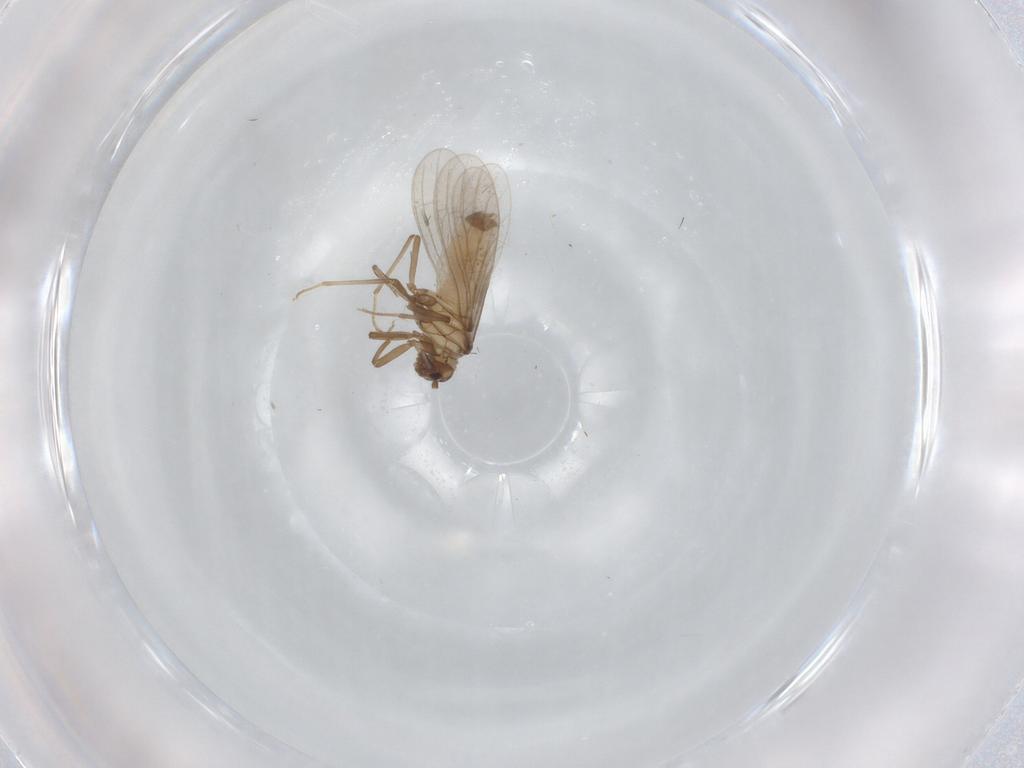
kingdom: Animalia
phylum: Arthropoda
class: Insecta
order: Neuroptera
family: Coniopterygidae
